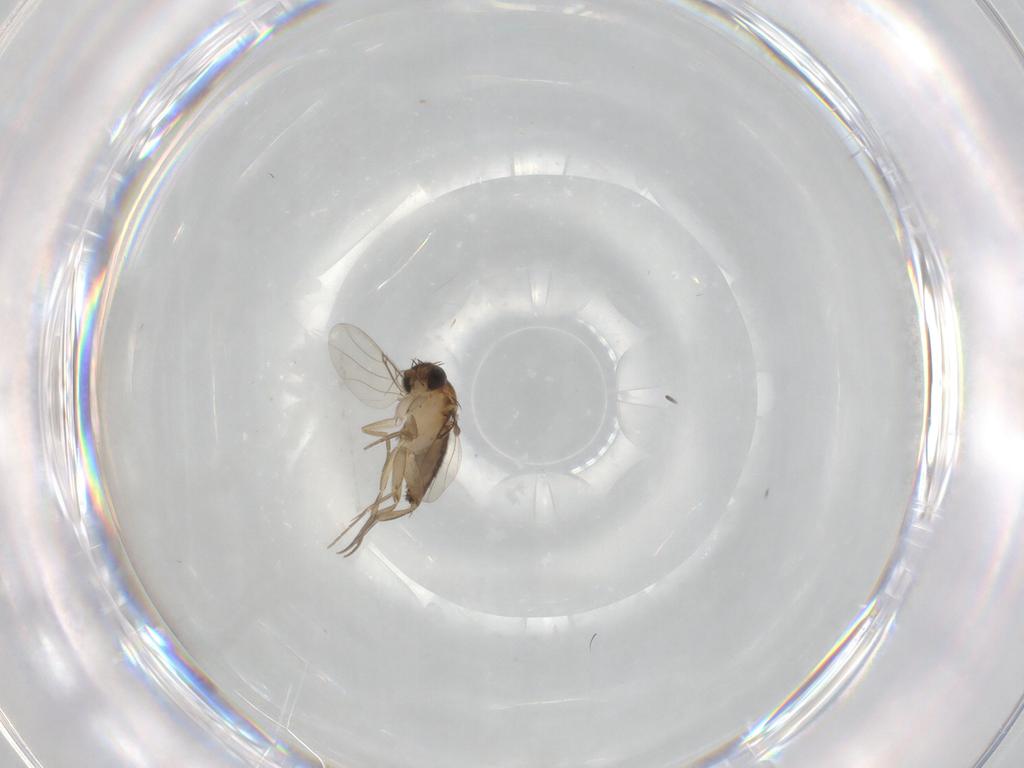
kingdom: Animalia
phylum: Arthropoda
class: Insecta
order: Diptera
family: Phoridae
